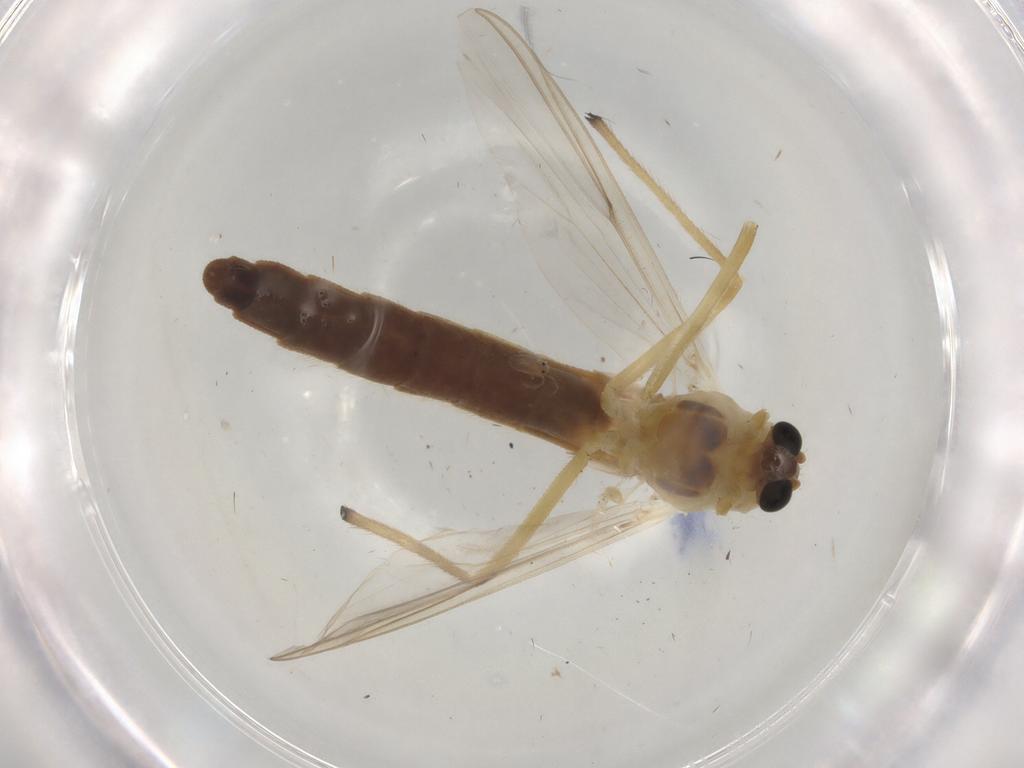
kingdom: Animalia
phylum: Arthropoda
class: Insecta
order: Diptera
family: Chironomidae
